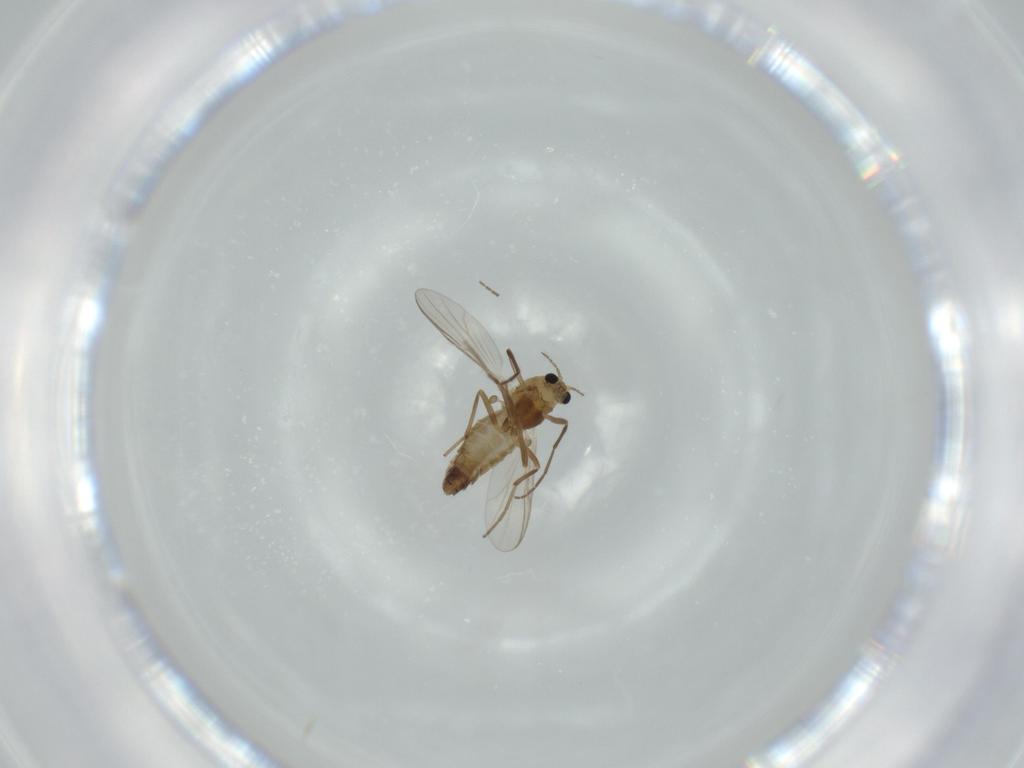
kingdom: Animalia
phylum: Arthropoda
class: Insecta
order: Diptera
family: Chironomidae
